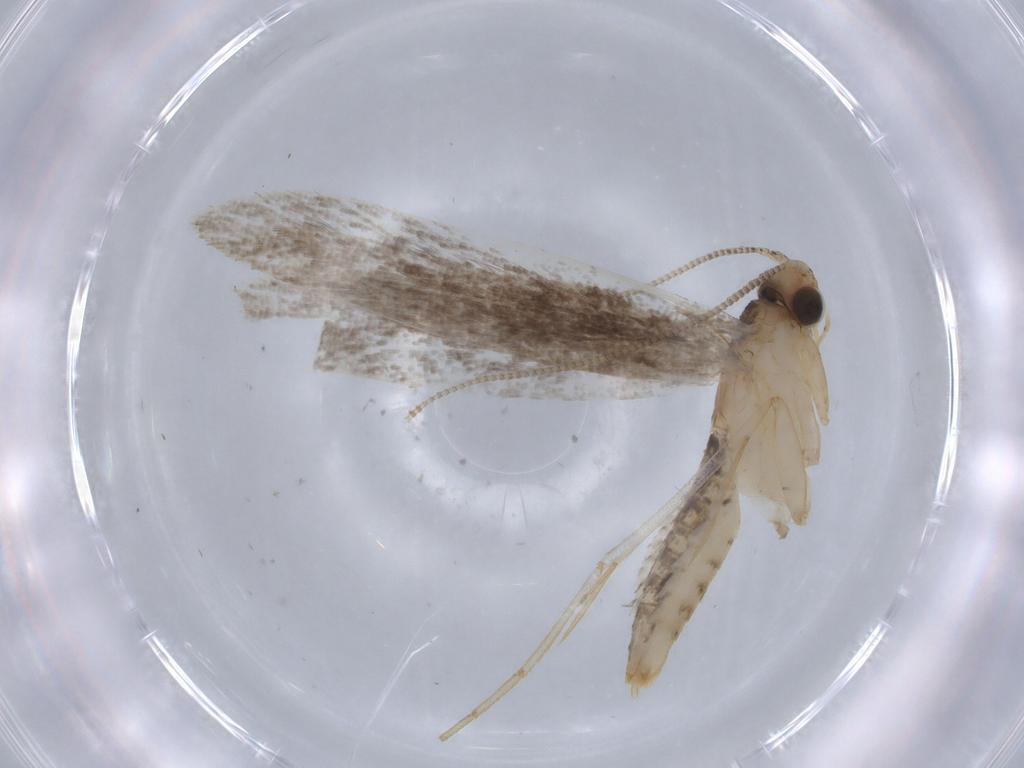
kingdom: Animalia
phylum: Arthropoda
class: Insecta
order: Lepidoptera
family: Tineidae
